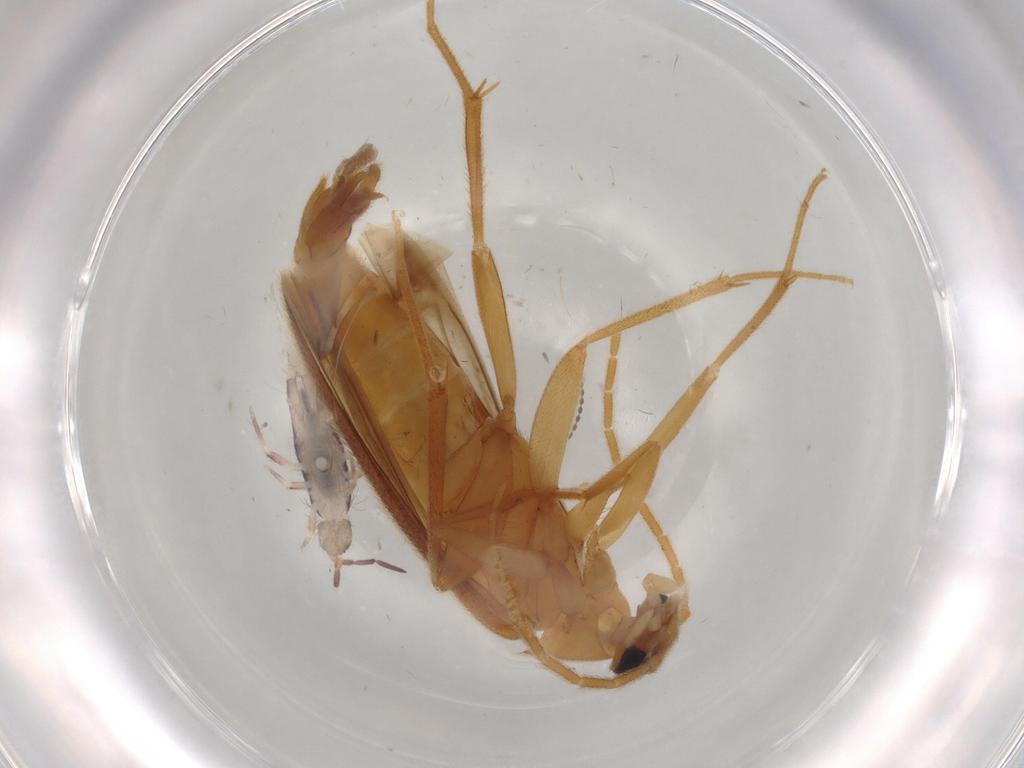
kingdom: Animalia
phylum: Arthropoda
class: Insecta
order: Coleoptera
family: Scraptiidae
